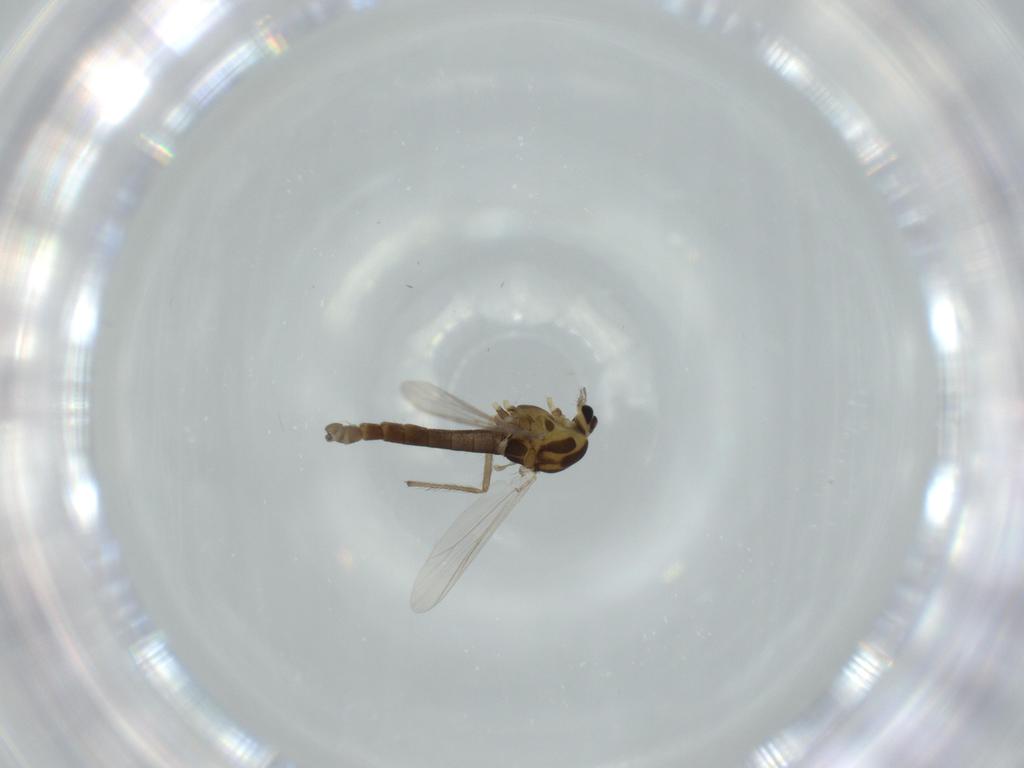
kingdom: Animalia
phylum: Arthropoda
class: Insecta
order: Diptera
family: Chironomidae
